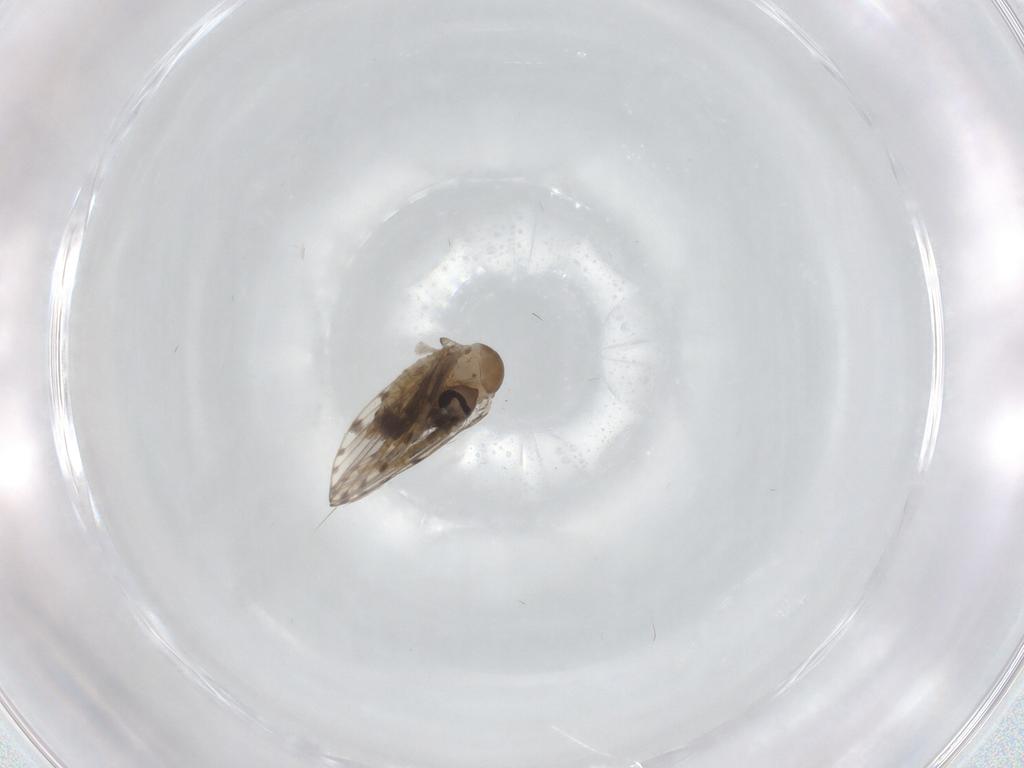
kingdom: Animalia
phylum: Arthropoda
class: Insecta
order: Diptera
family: Psychodidae
